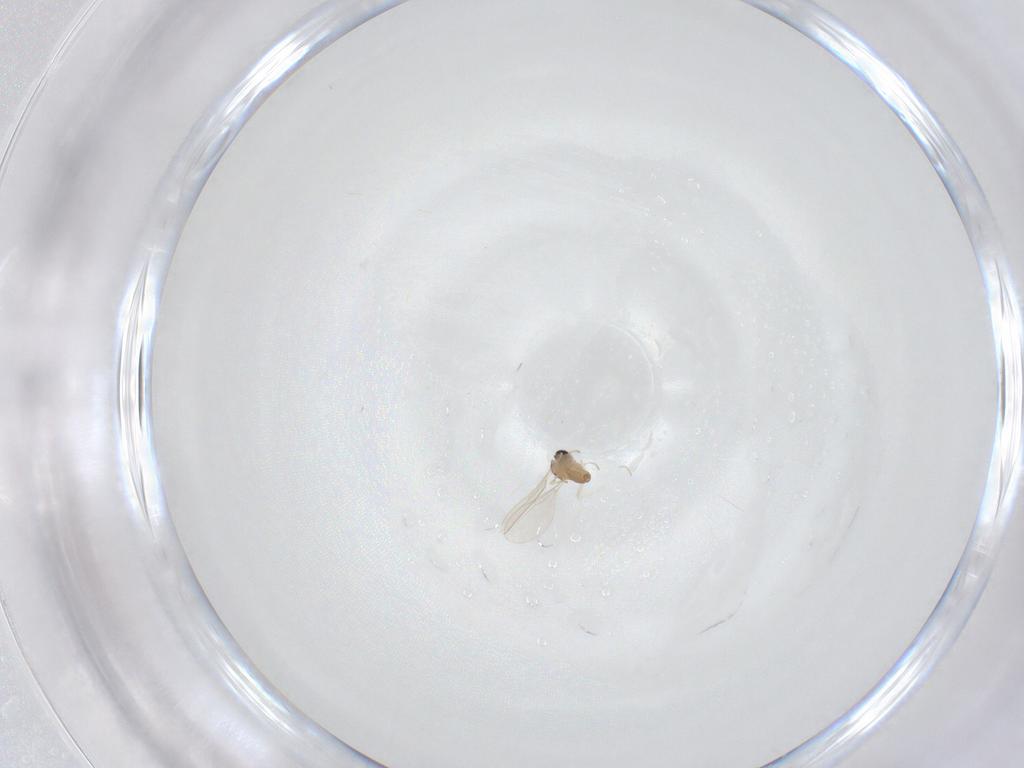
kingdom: Animalia
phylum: Arthropoda
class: Insecta
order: Diptera
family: Cecidomyiidae
